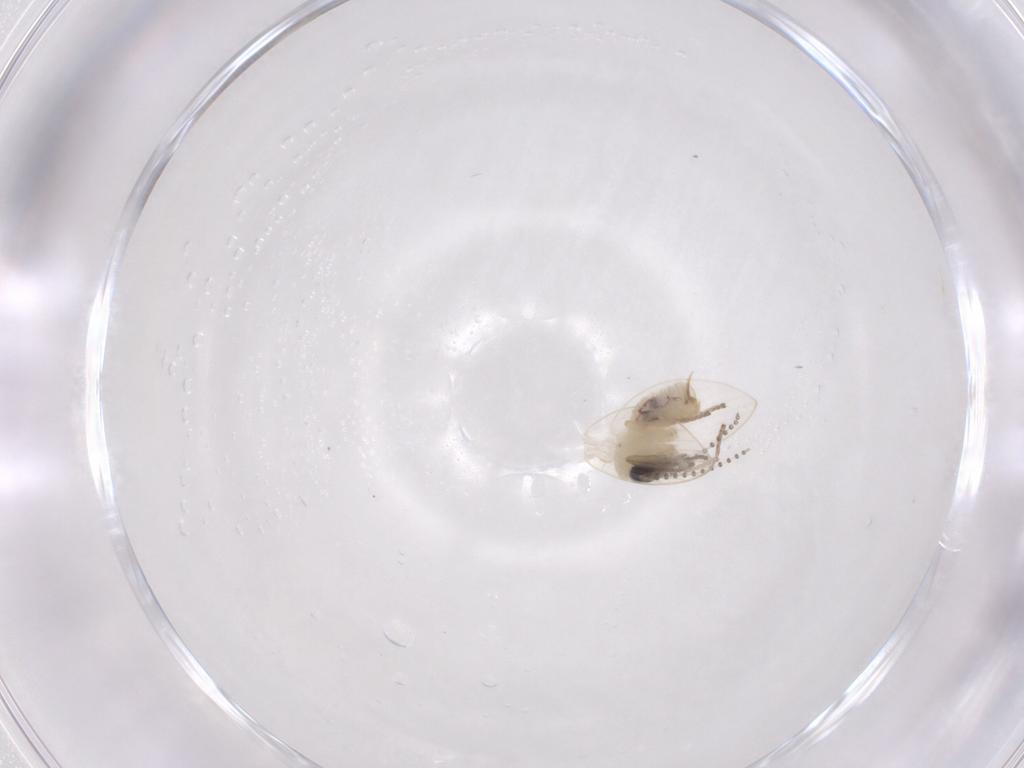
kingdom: Animalia
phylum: Arthropoda
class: Insecta
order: Diptera
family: Psychodidae
